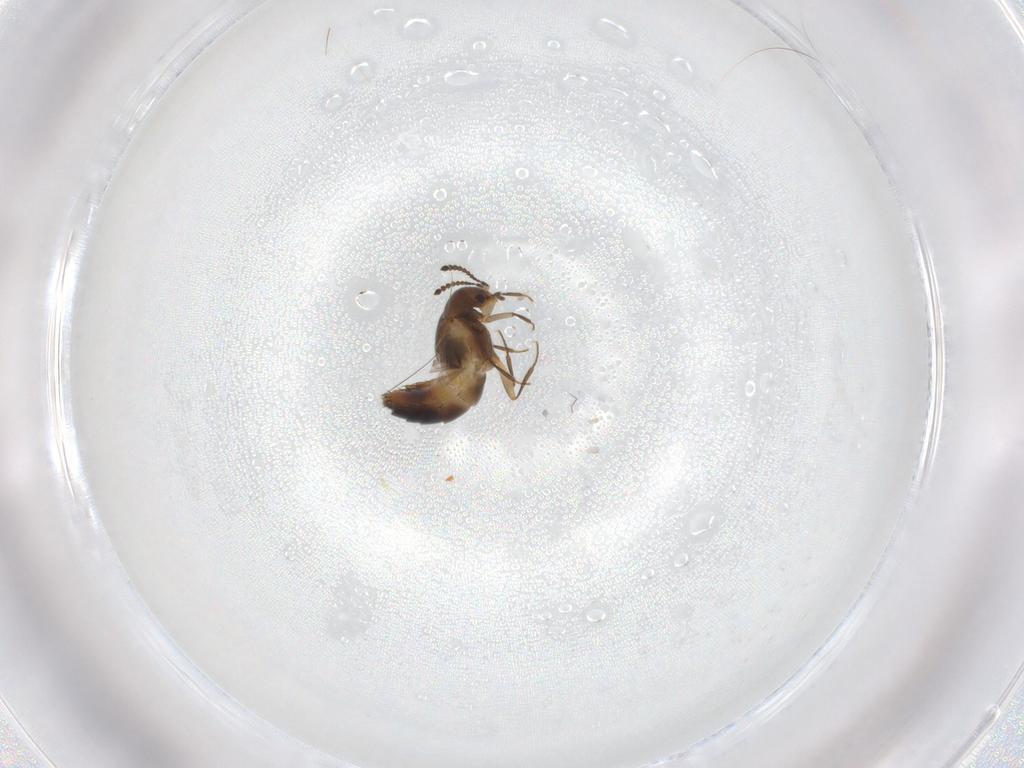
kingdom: Animalia
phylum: Arthropoda
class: Insecta
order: Coleoptera
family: Staphylinidae
